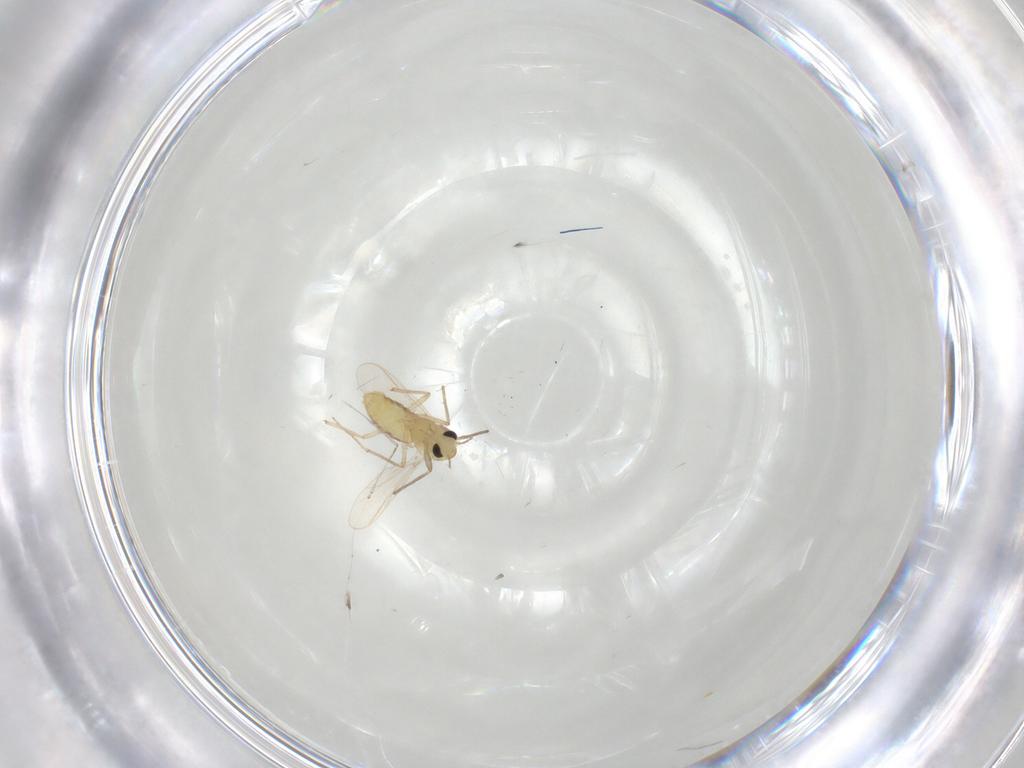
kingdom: Animalia
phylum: Arthropoda
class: Insecta
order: Diptera
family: Chironomidae
